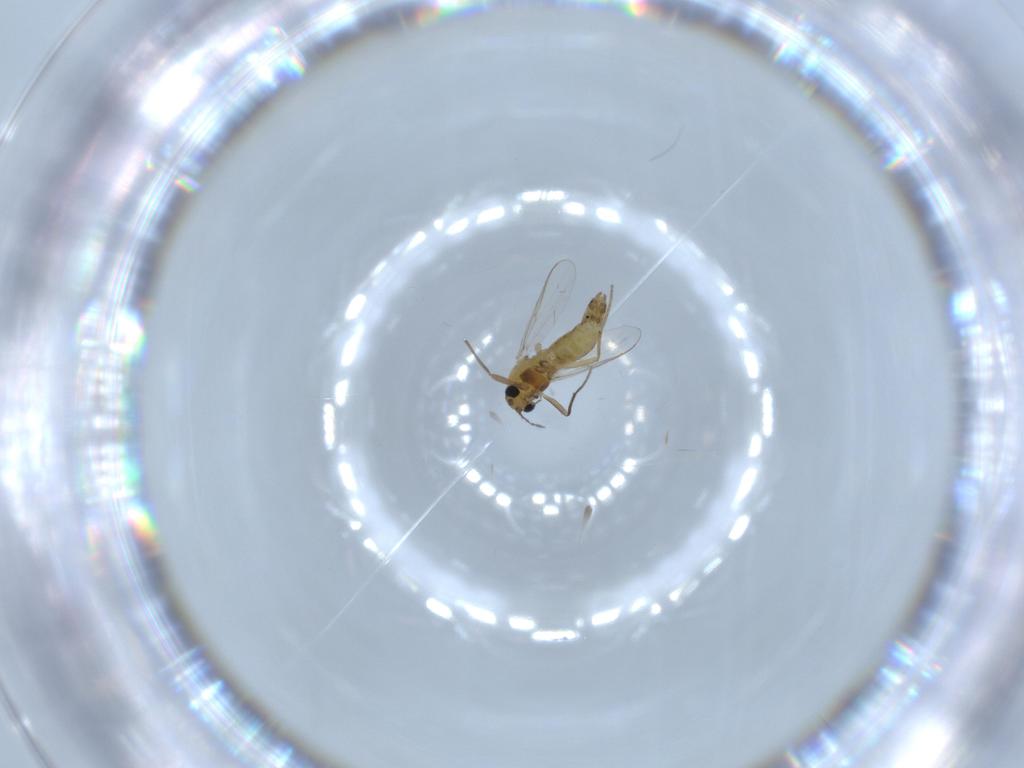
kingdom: Animalia
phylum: Arthropoda
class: Insecta
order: Diptera
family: Chironomidae
